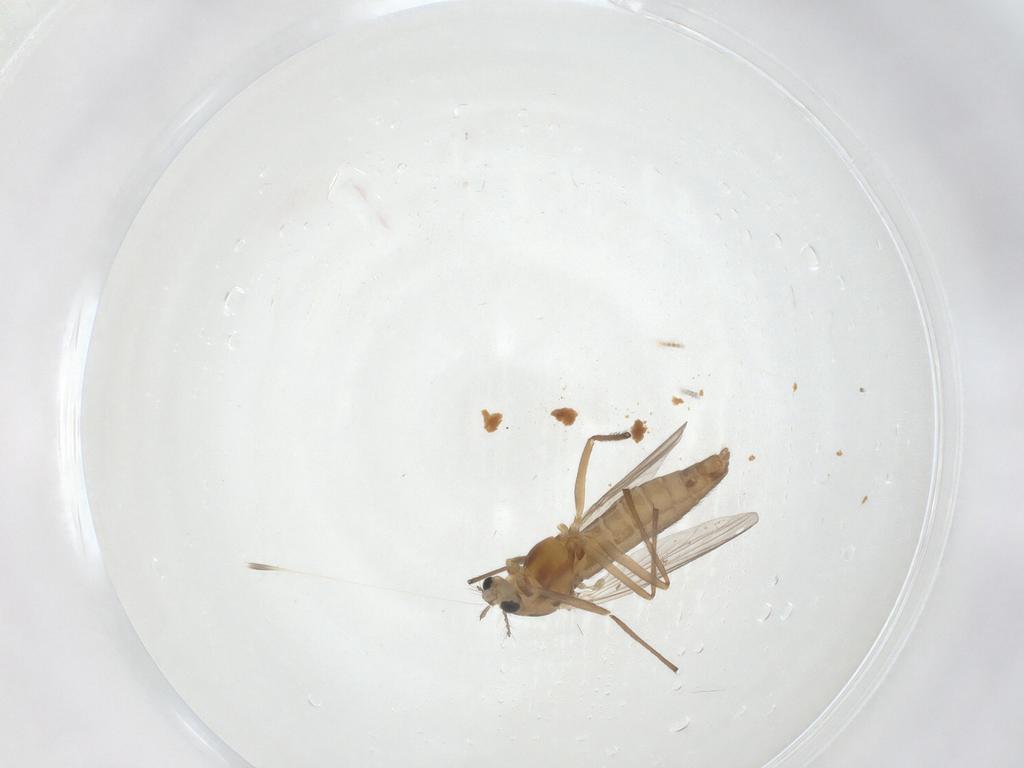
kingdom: Animalia
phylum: Arthropoda
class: Insecta
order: Diptera
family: Chironomidae
